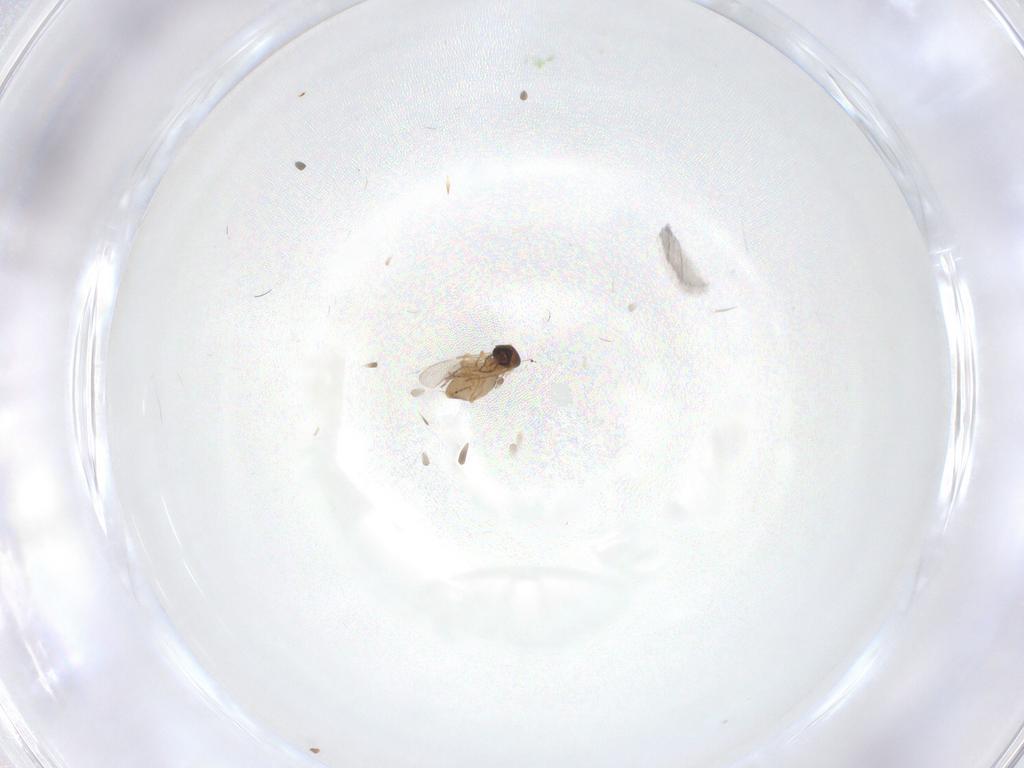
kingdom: Animalia
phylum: Arthropoda
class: Insecta
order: Diptera
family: Ceratopogonidae
